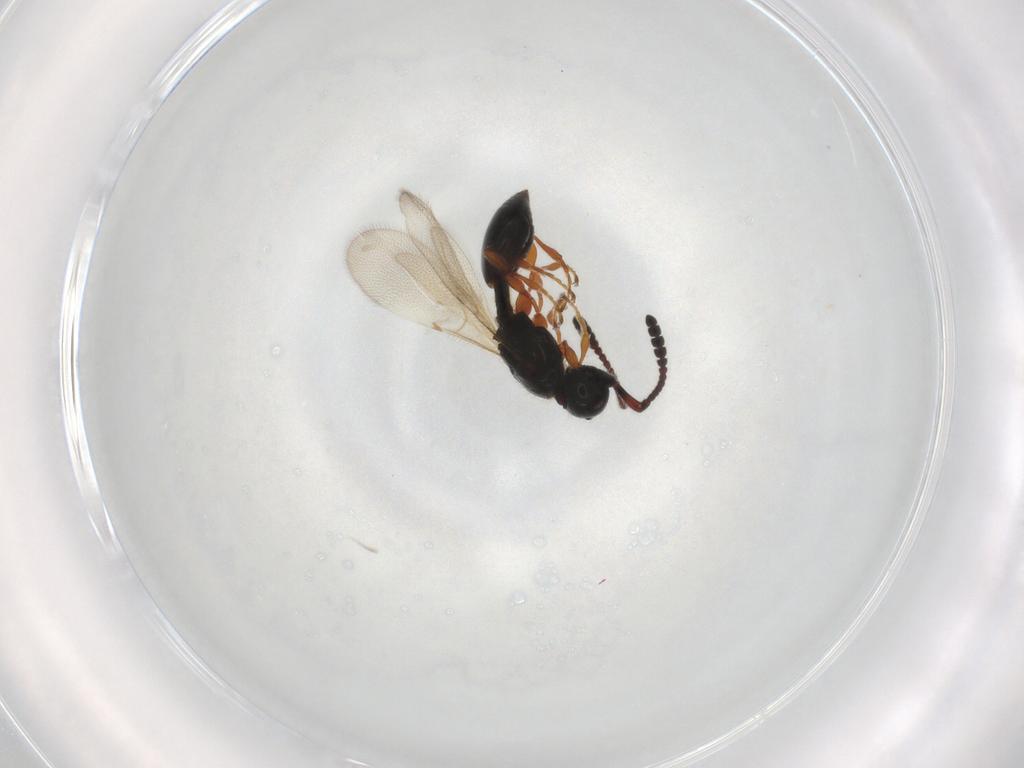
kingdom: Animalia
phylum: Arthropoda
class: Insecta
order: Hymenoptera
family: Diapriidae
